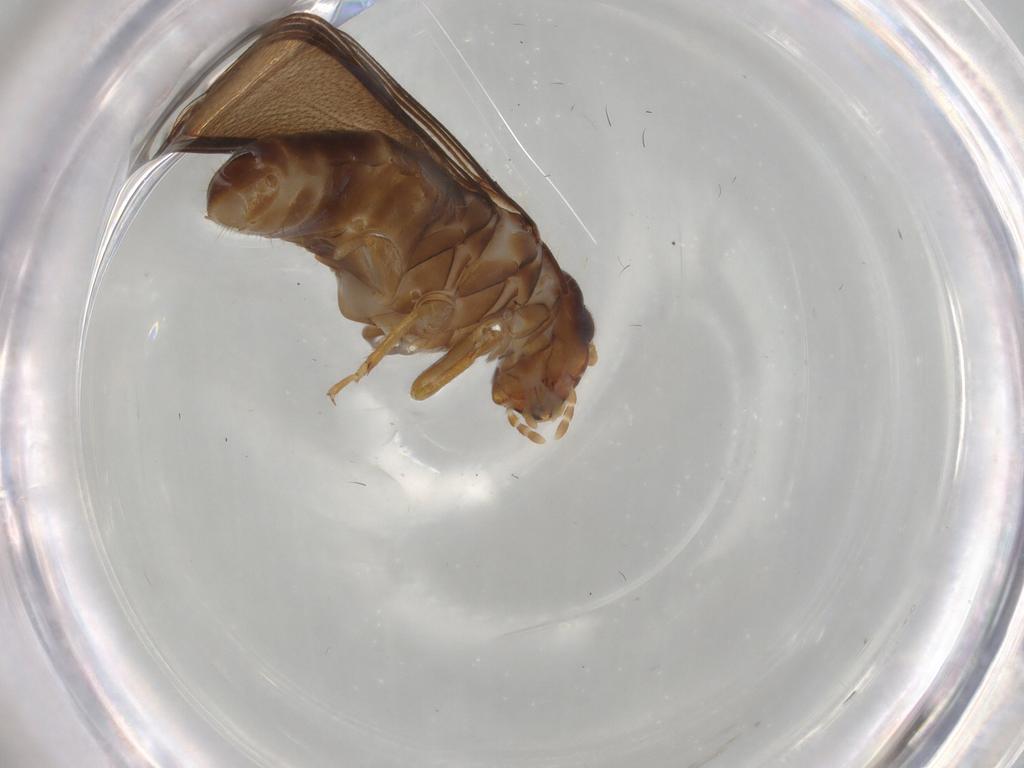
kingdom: Animalia
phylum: Arthropoda
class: Insecta
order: Blattodea
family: Kalotermitidae
